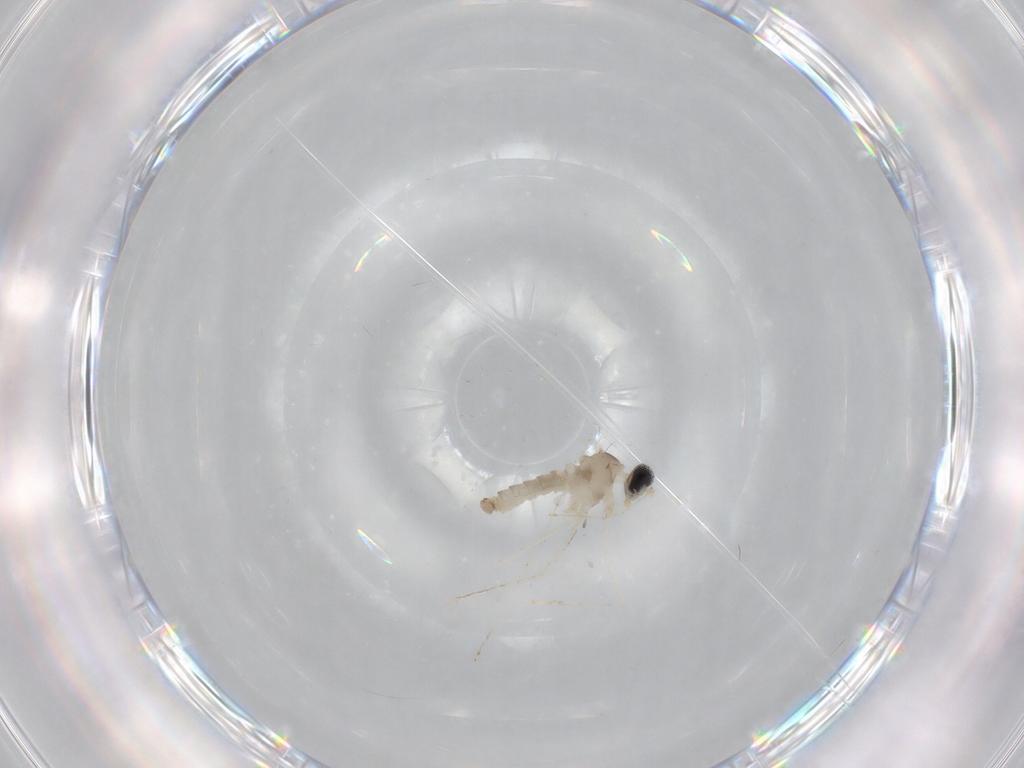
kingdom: Animalia
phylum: Arthropoda
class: Insecta
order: Diptera
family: Cecidomyiidae
